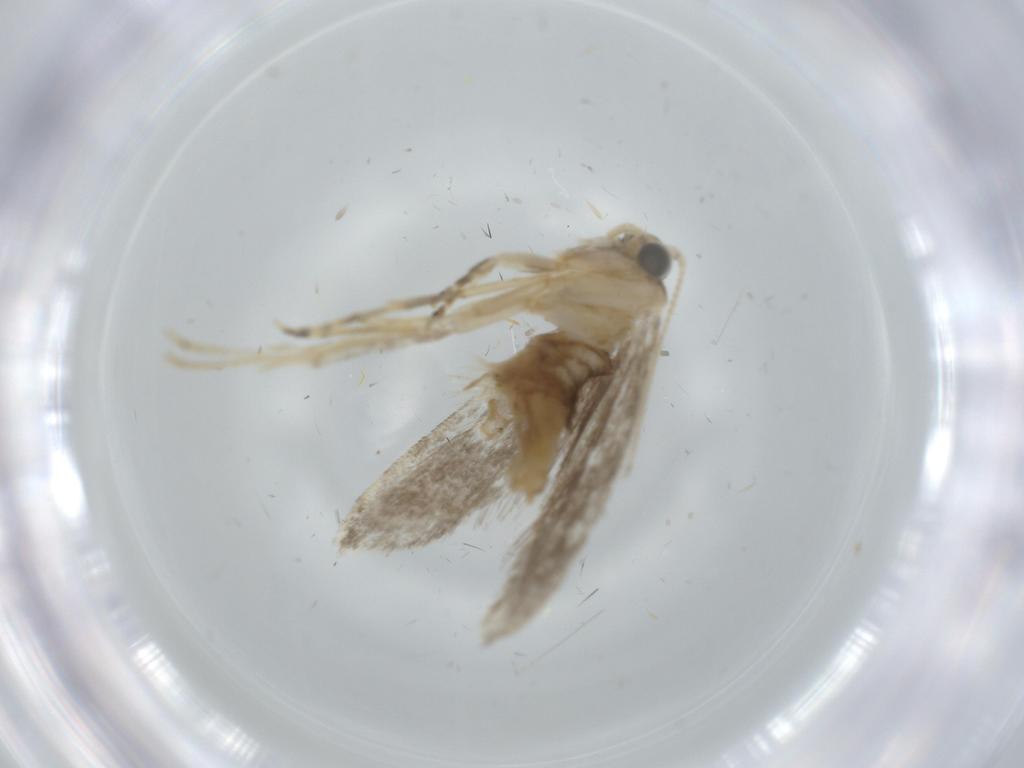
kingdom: Animalia
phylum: Arthropoda
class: Insecta
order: Lepidoptera
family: Tineidae
